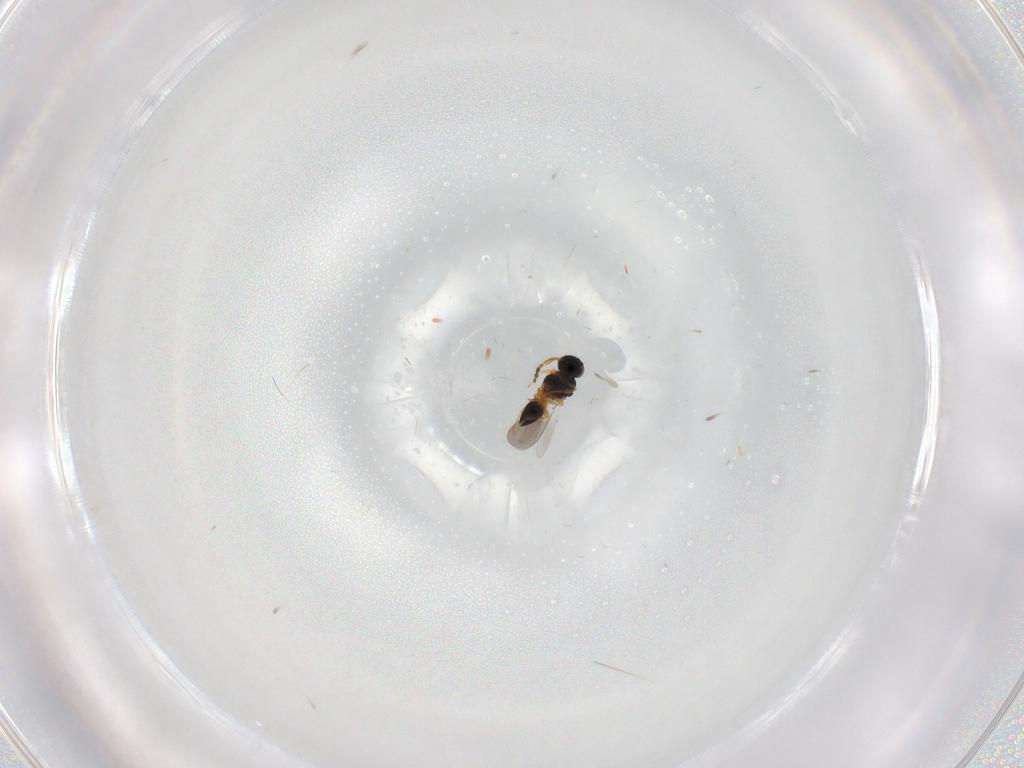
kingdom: Animalia
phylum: Arthropoda
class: Insecta
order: Hymenoptera
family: Platygastridae
